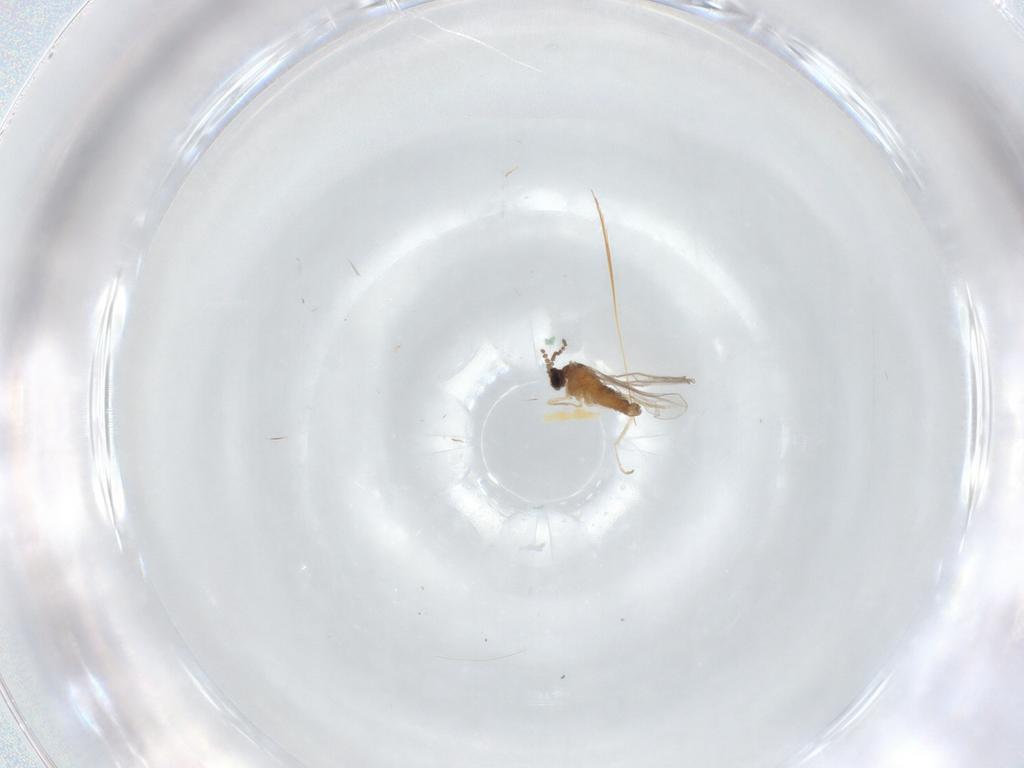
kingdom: Animalia
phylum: Arthropoda
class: Insecta
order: Diptera
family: Cecidomyiidae
